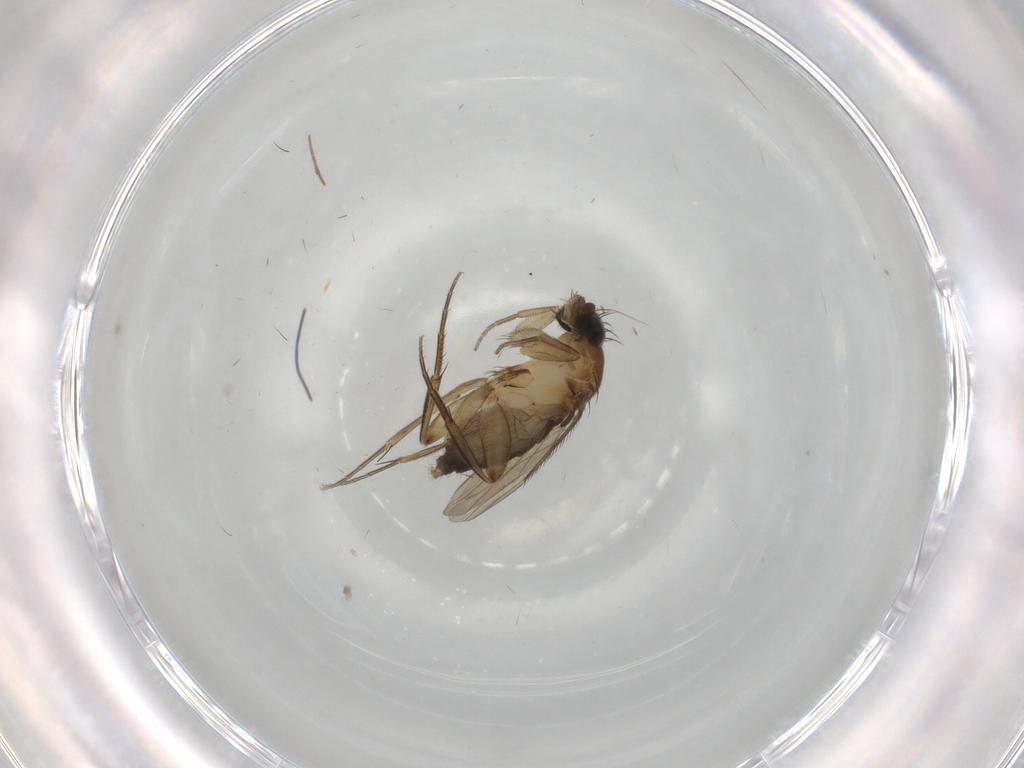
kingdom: Animalia
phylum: Arthropoda
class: Insecta
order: Diptera
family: Phoridae
